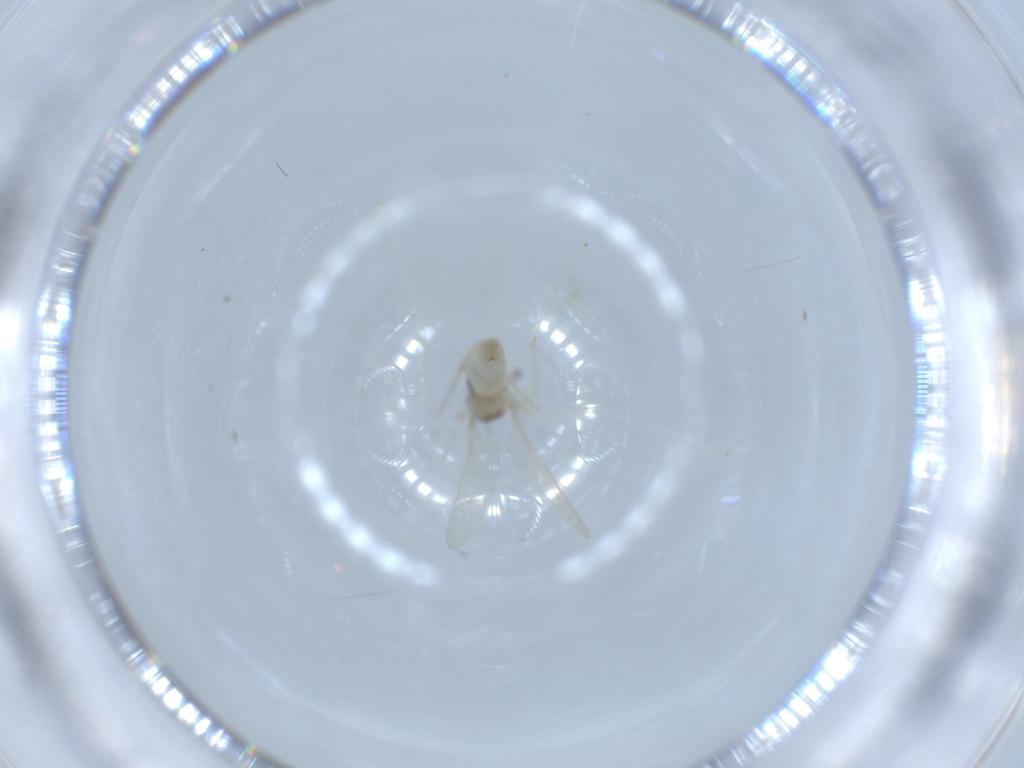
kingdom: Animalia
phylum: Arthropoda
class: Insecta
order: Diptera
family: Cecidomyiidae
